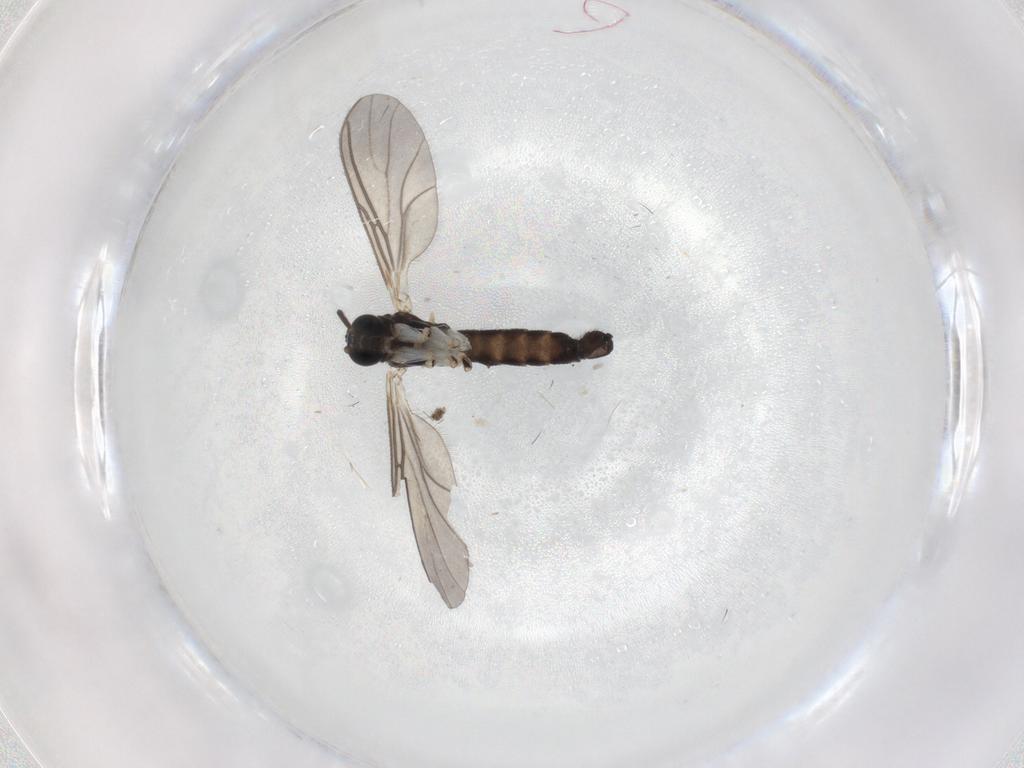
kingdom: Animalia
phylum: Arthropoda
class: Insecta
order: Diptera
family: Sciaridae
